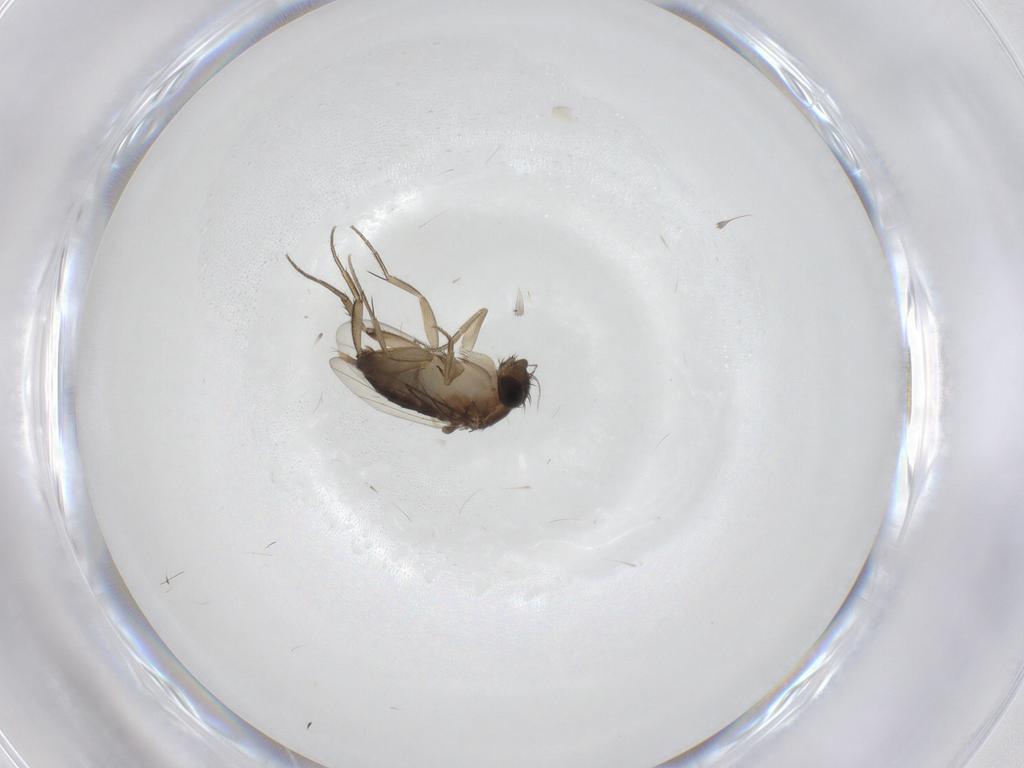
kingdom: Animalia
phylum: Arthropoda
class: Insecta
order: Diptera
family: Phoridae
